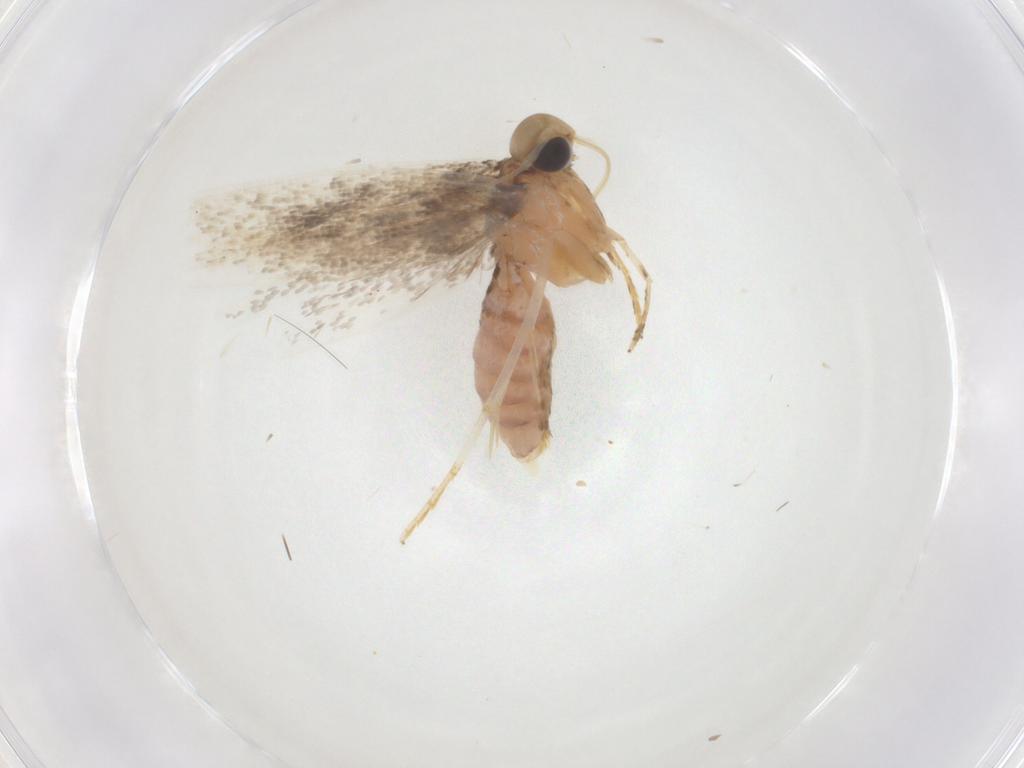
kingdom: Animalia
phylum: Arthropoda
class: Insecta
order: Lepidoptera
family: Gelechiidae
